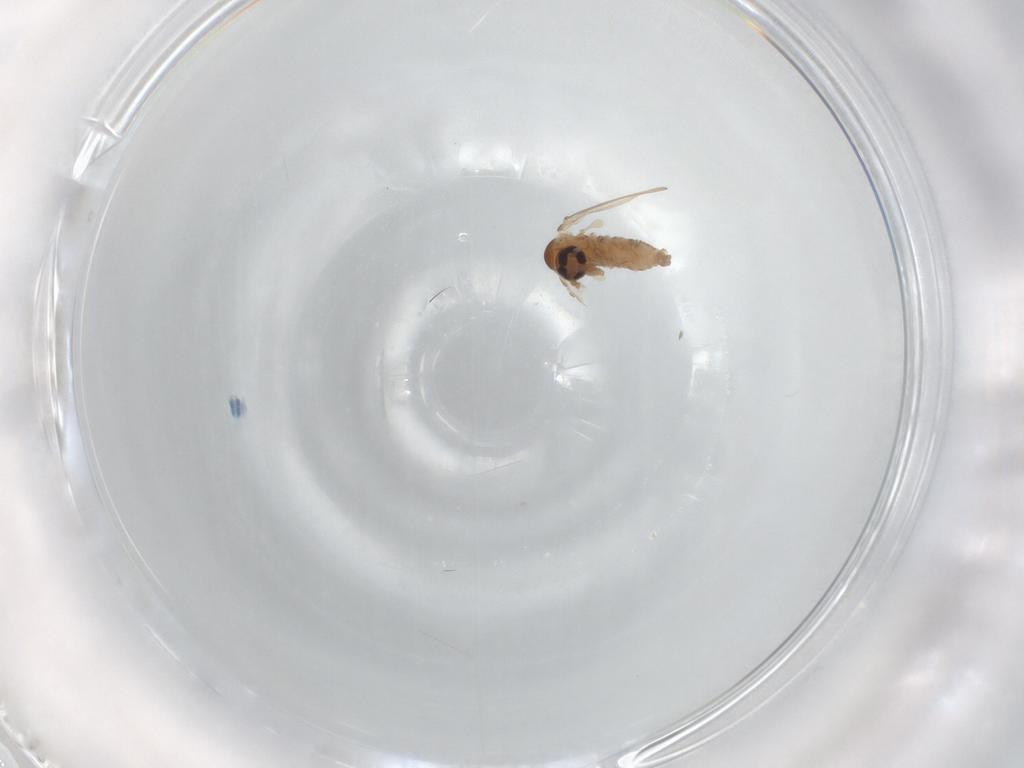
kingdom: Animalia
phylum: Arthropoda
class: Insecta
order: Diptera
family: Psychodidae
